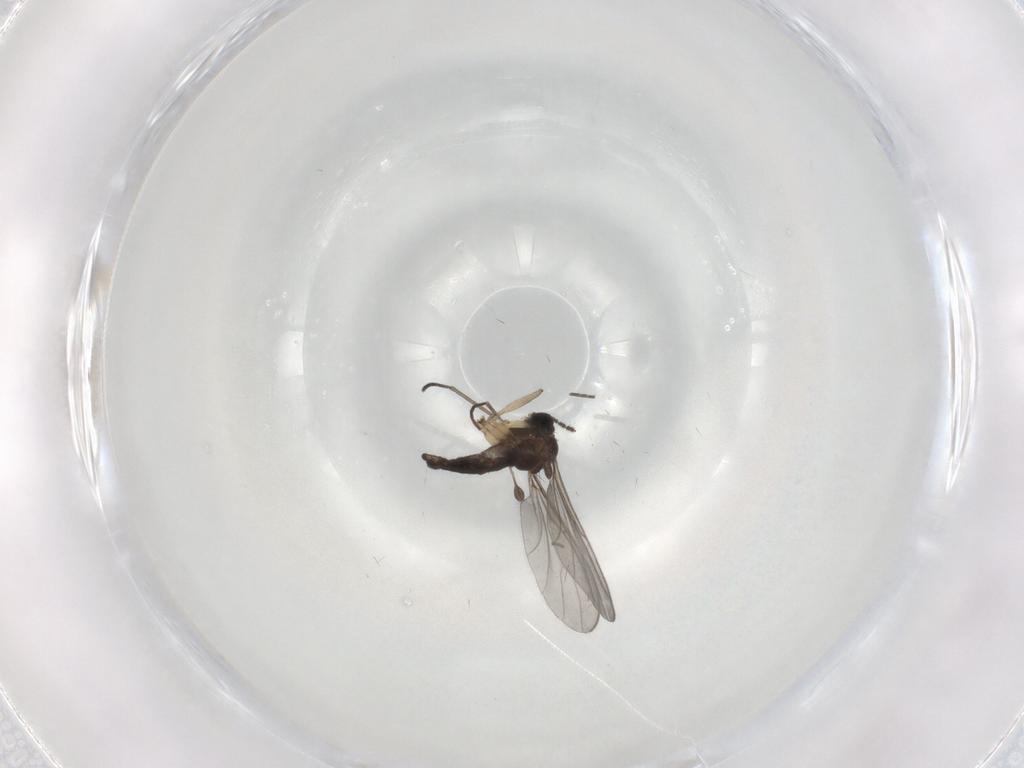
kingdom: Animalia
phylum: Arthropoda
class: Insecta
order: Diptera
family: Sciaridae
